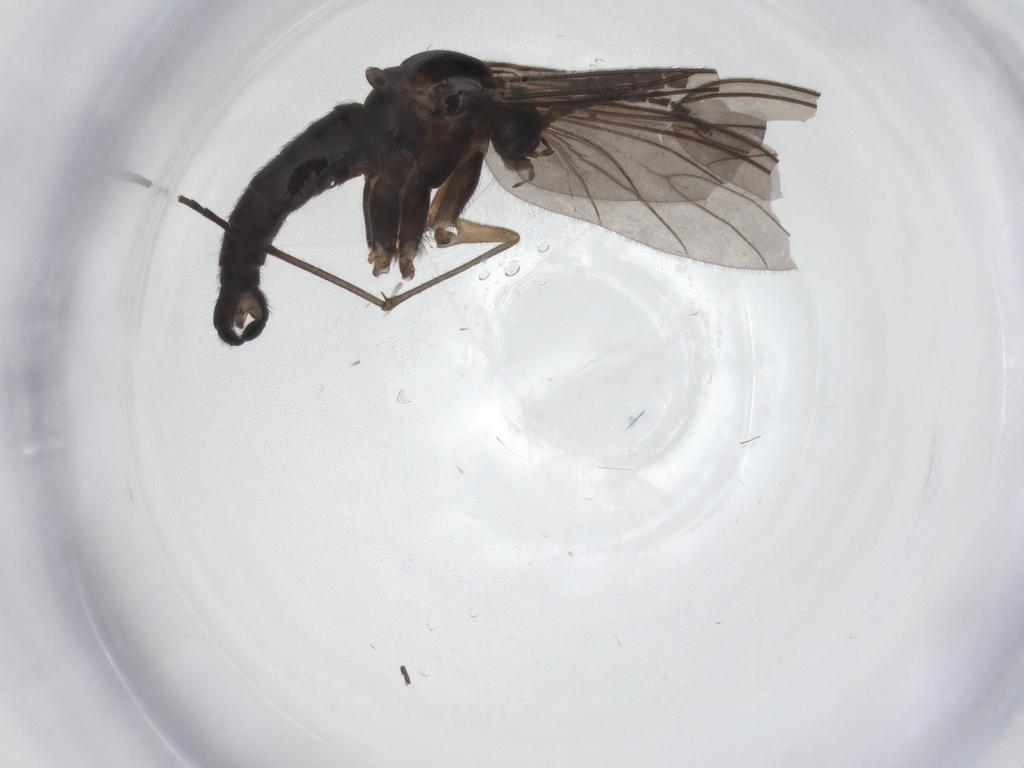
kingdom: Animalia
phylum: Arthropoda
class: Insecta
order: Diptera
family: Sciaridae
